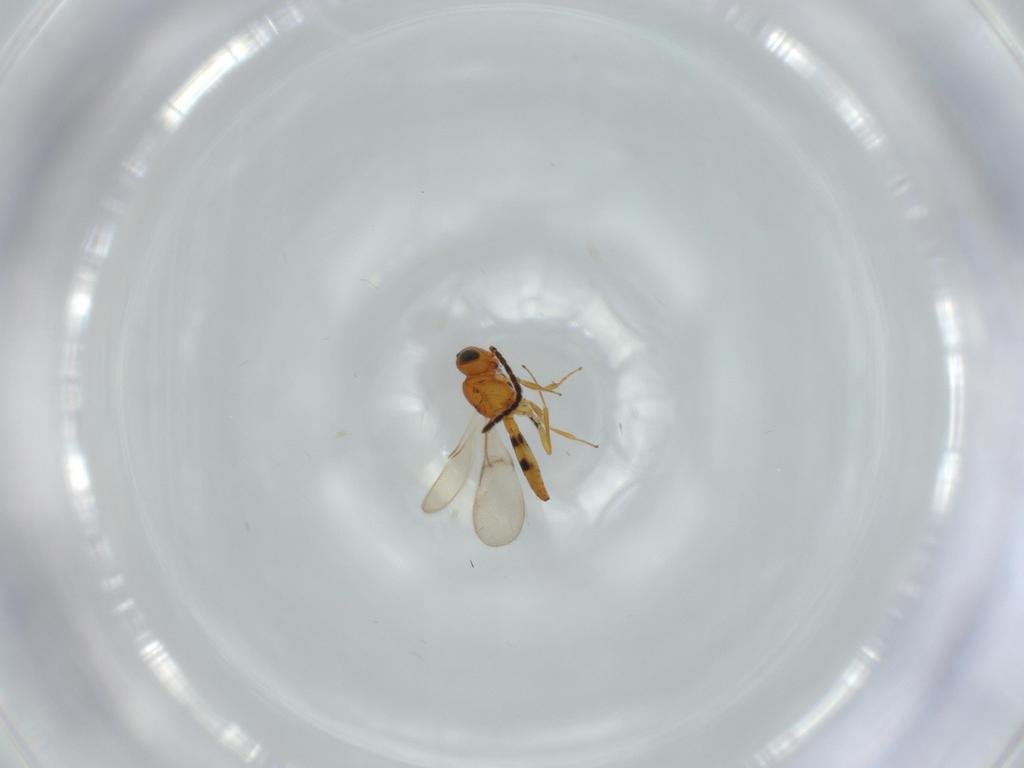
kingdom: Animalia
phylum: Arthropoda
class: Insecta
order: Hymenoptera
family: Scelionidae
